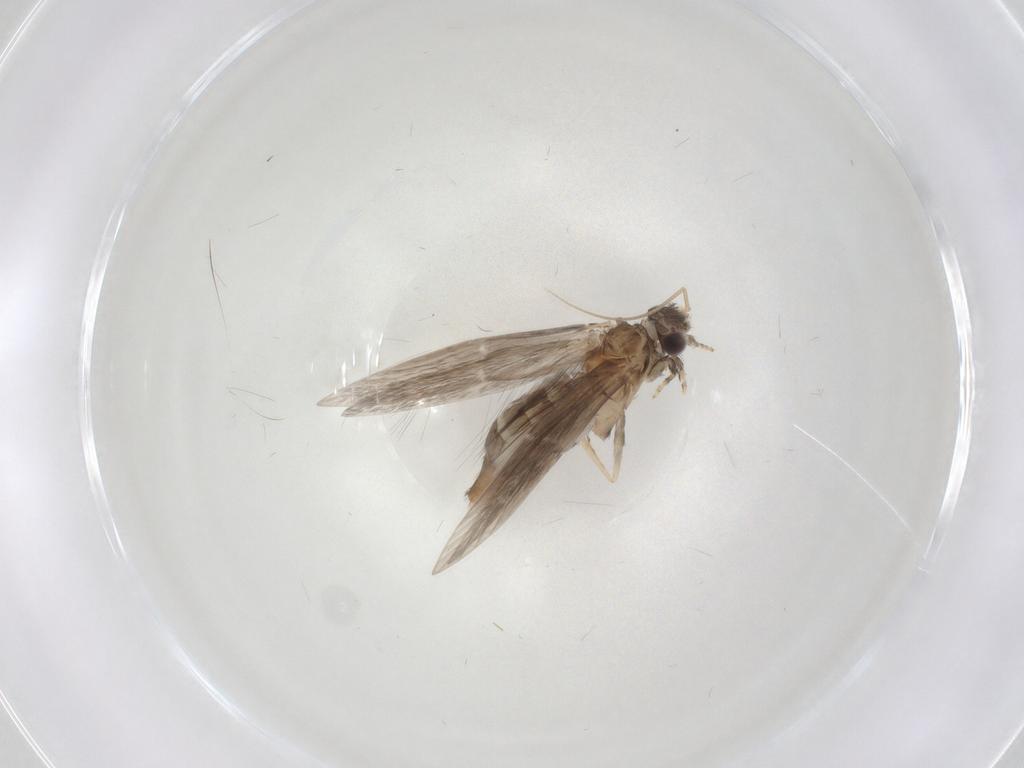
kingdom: Animalia
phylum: Arthropoda
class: Insecta
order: Trichoptera
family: Hydroptilidae
